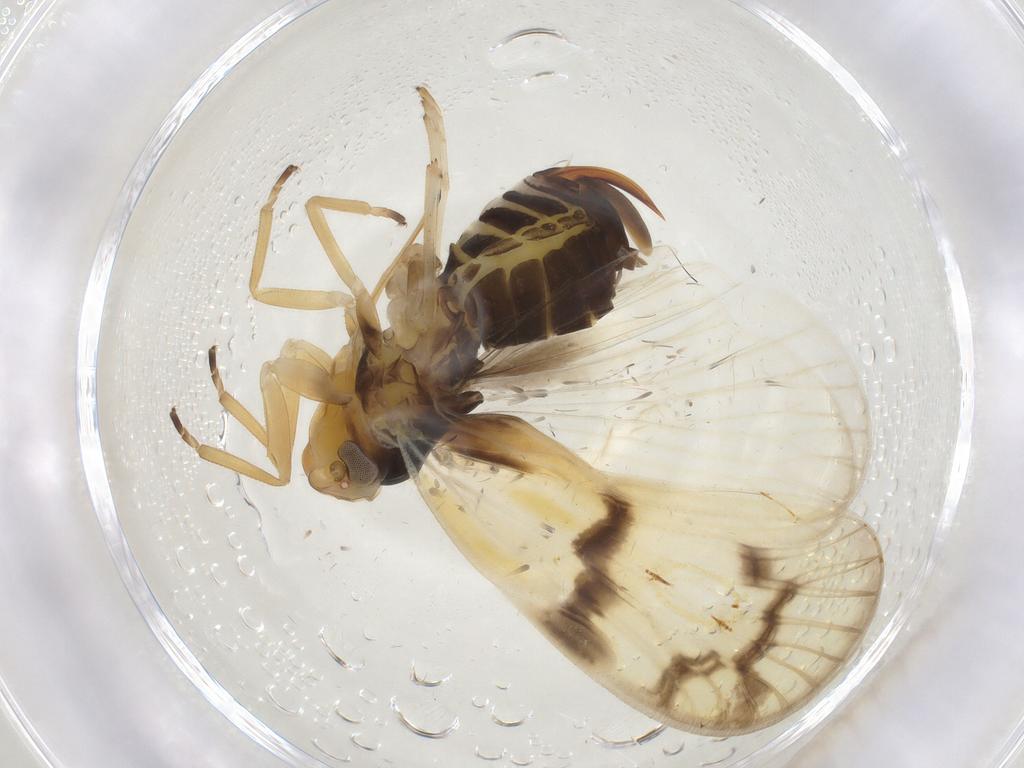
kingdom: Animalia
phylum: Arthropoda
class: Insecta
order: Hemiptera
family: Cixiidae
